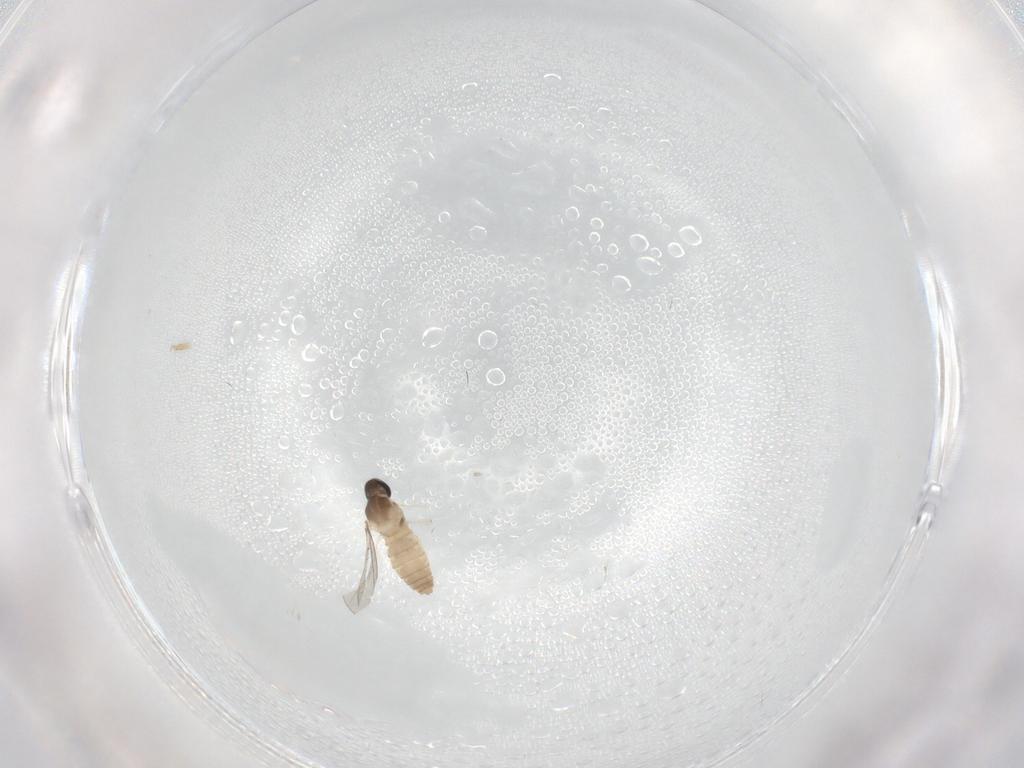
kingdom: Animalia
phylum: Arthropoda
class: Insecta
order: Diptera
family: Cecidomyiidae
